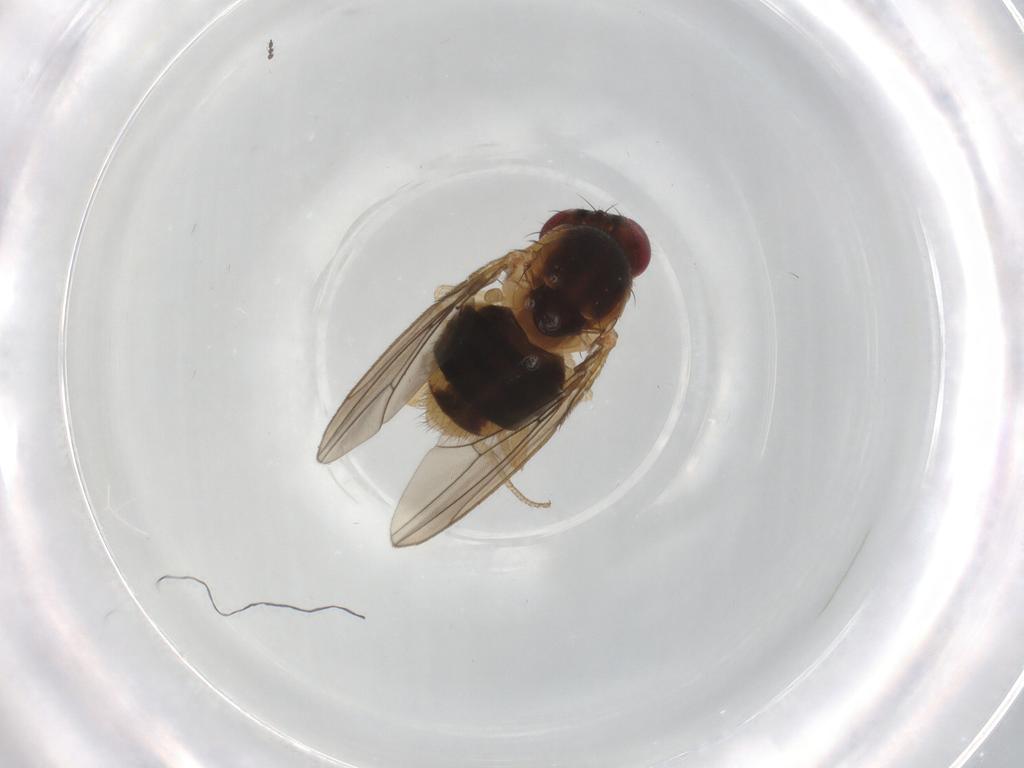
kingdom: Animalia
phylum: Arthropoda
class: Insecta
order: Diptera
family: Drosophilidae
